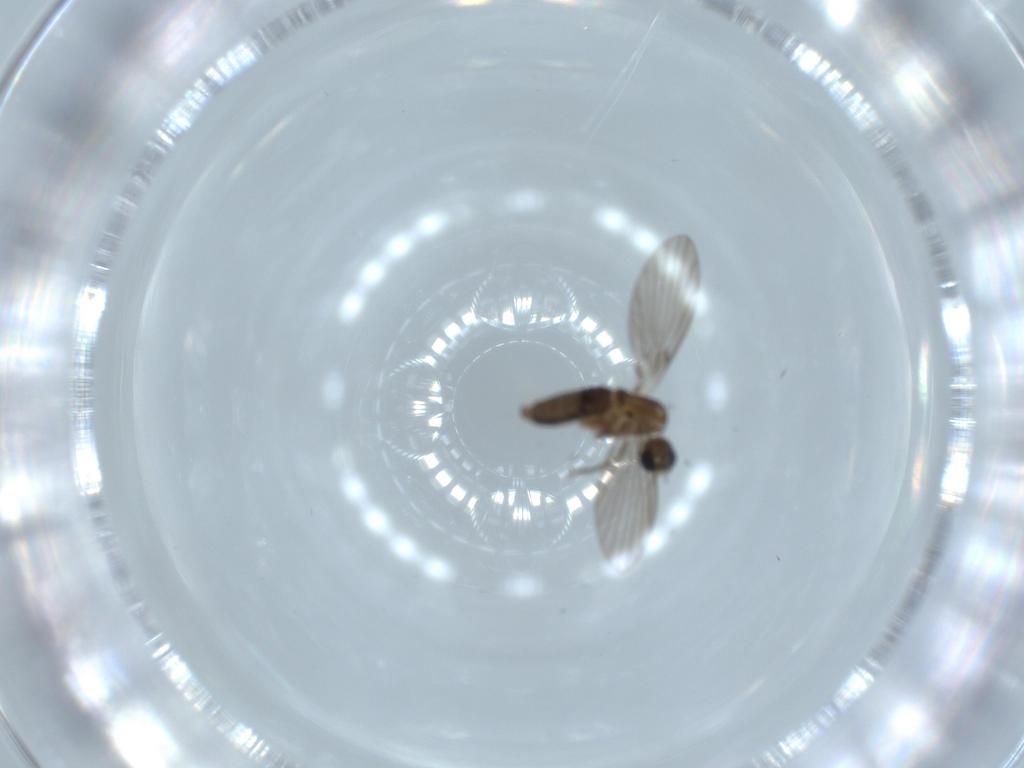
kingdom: Animalia
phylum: Arthropoda
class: Insecta
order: Diptera
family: Psychodidae
